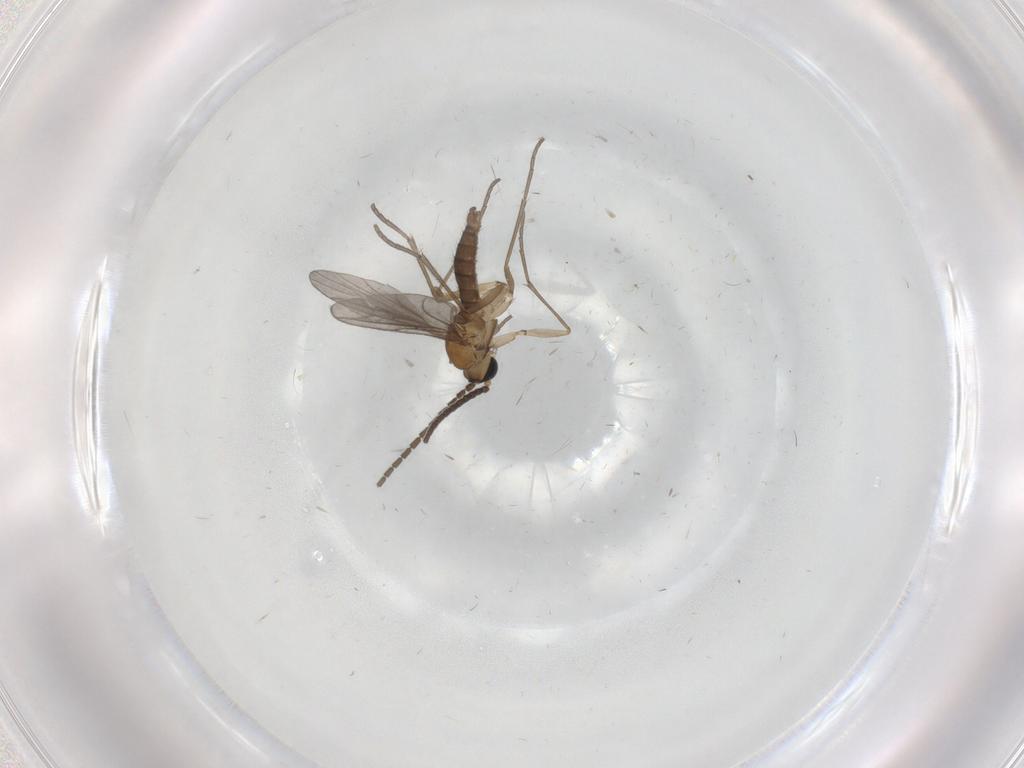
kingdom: Animalia
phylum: Arthropoda
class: Insecta
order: Diptera
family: Sciaridae
